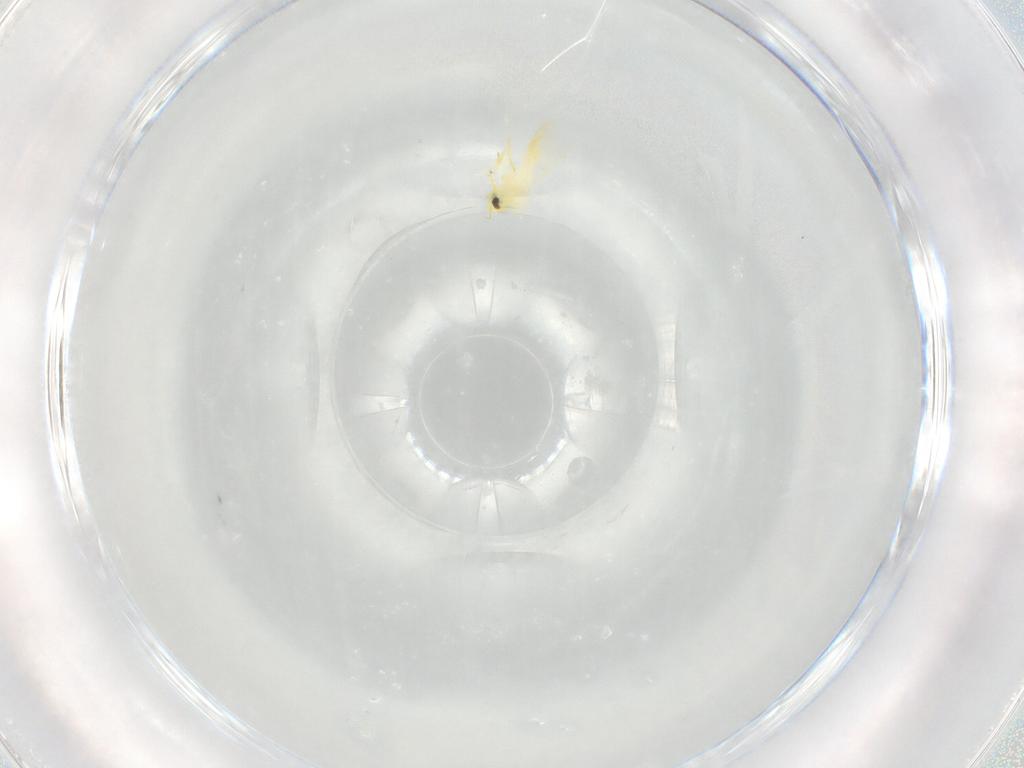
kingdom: Animalia
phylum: Arthropoda
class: Insecta
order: Hemiptera
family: Aleyrodidae
